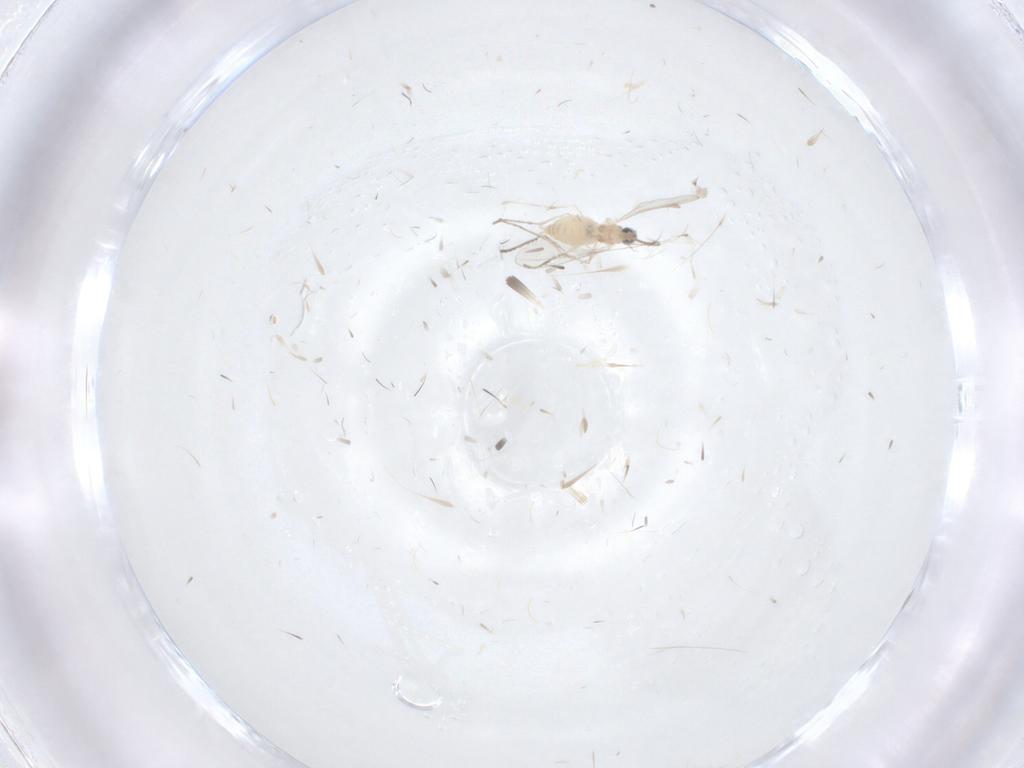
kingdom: Animalia
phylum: Arthropoda
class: Insecta
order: Diptera
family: Cecidomyiidae
